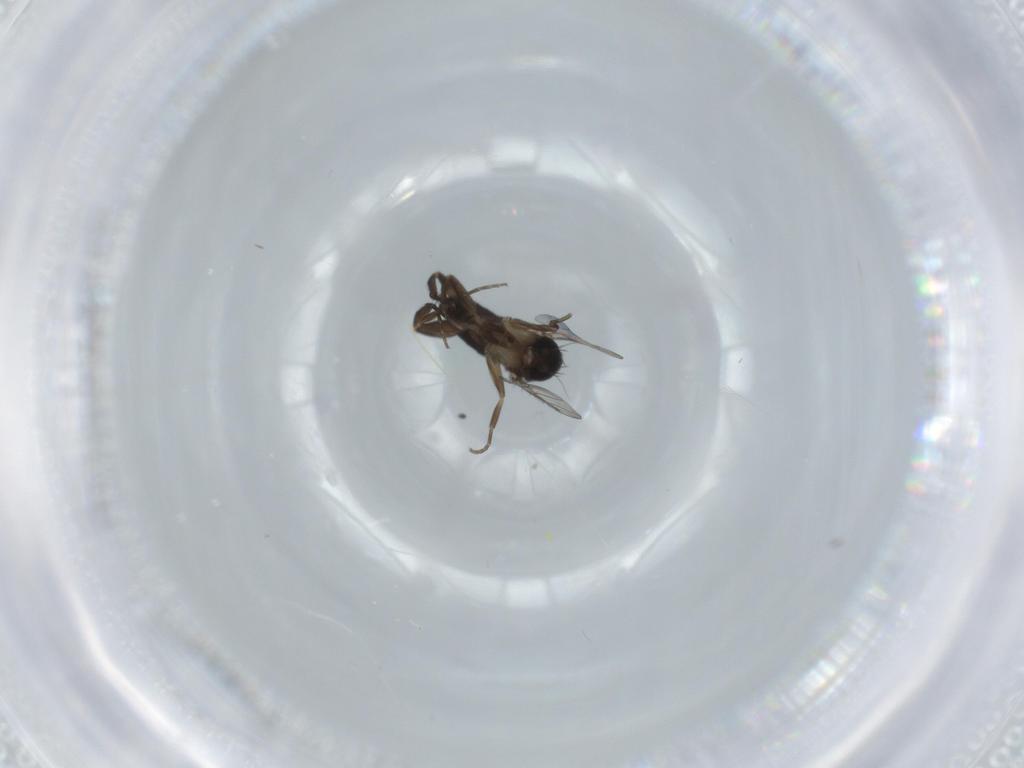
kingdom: Animalia
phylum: Arthropoda
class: Insecta
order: Diptera
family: Phoridae
